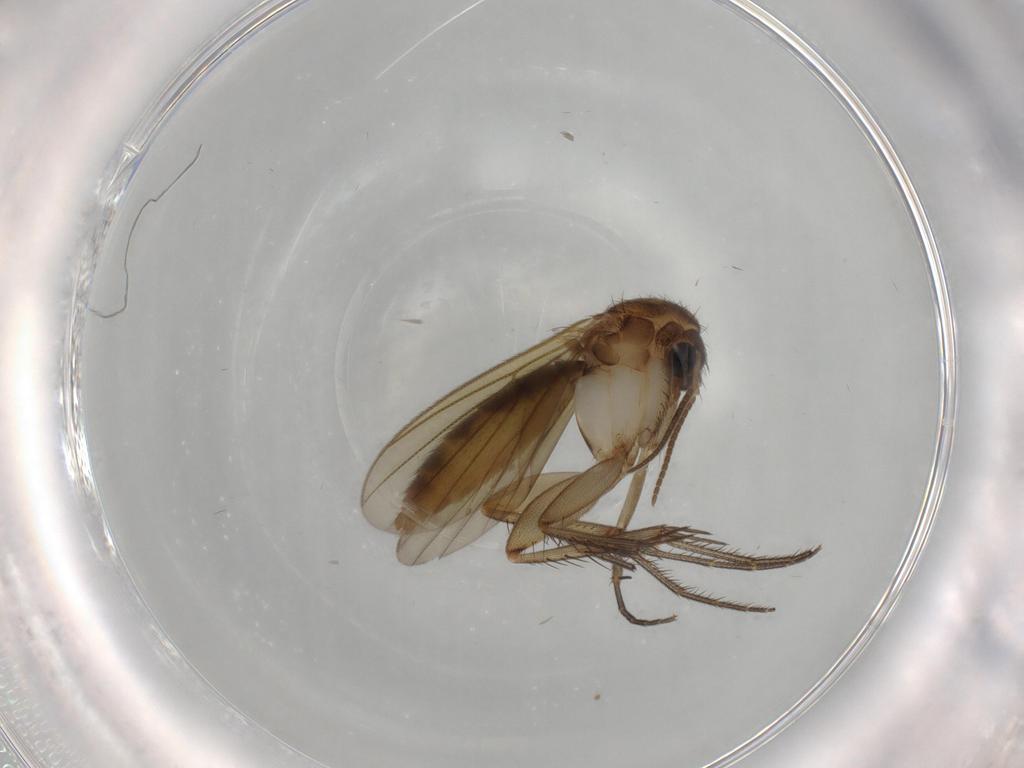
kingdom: Animalia
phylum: Arthropoda
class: Insecta
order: Diptera
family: Mycetophilidae
